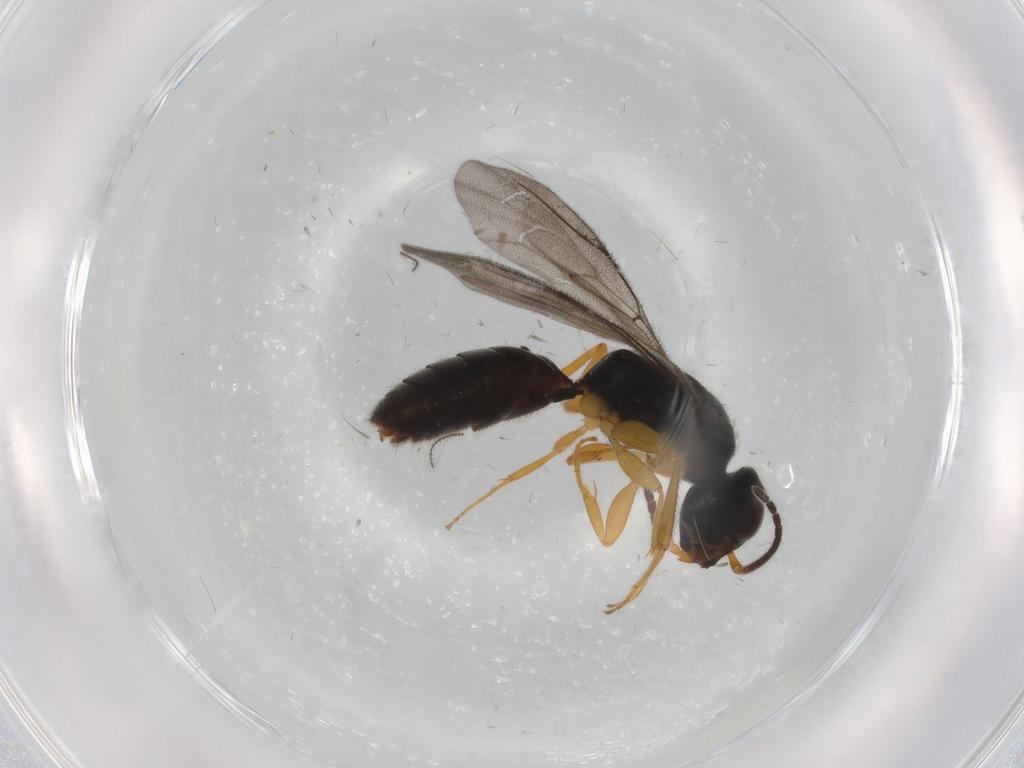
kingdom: Animalia
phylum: Arthropoda
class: Insecta
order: Hymenoptera
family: Bethylidae
